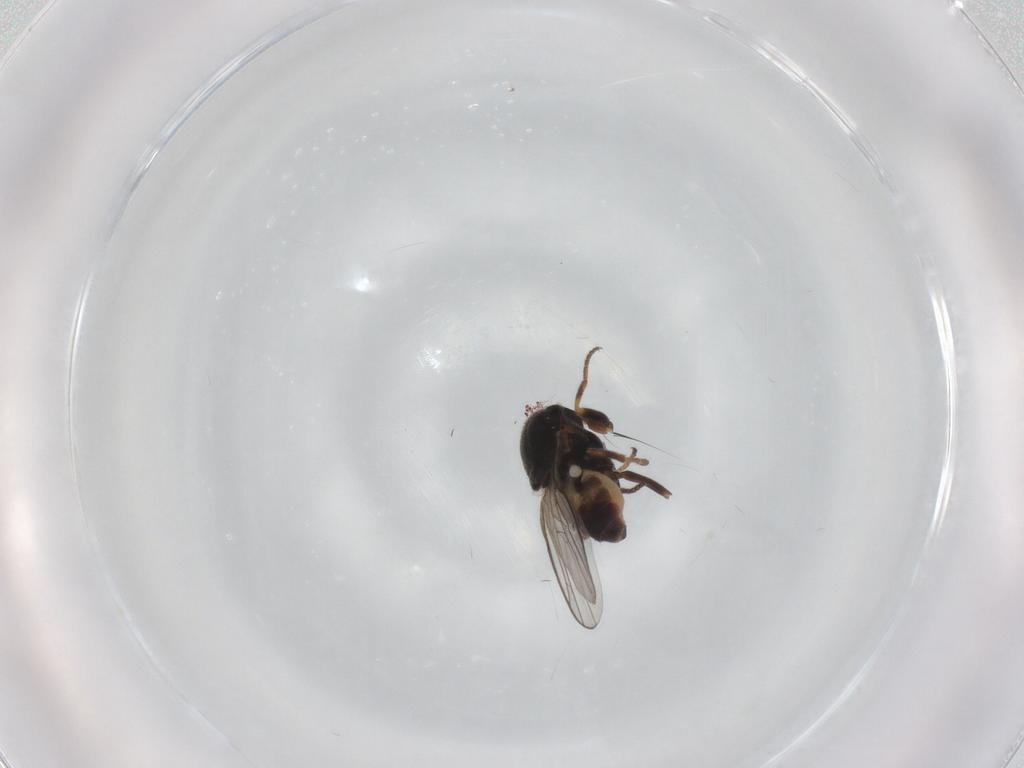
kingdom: Animalia
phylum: Arthropoda
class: Insecta
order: Diptera
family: Chloropidae
